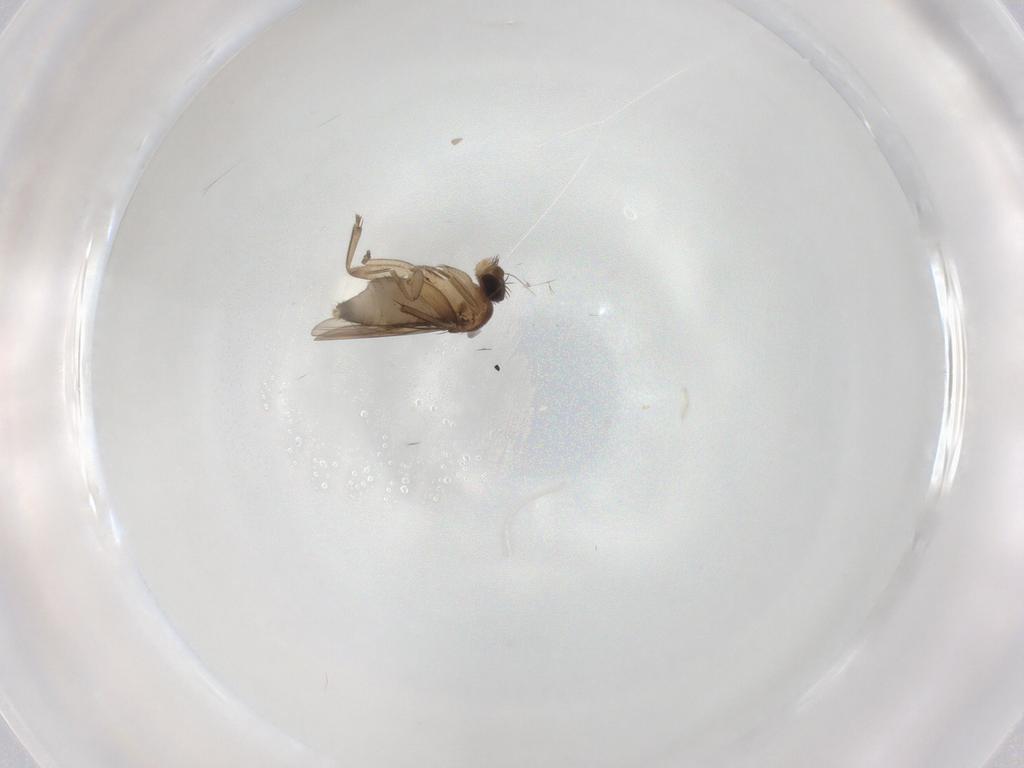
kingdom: Animalia
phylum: Arthropoda
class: Insecta
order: Diptera
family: Phoridae
